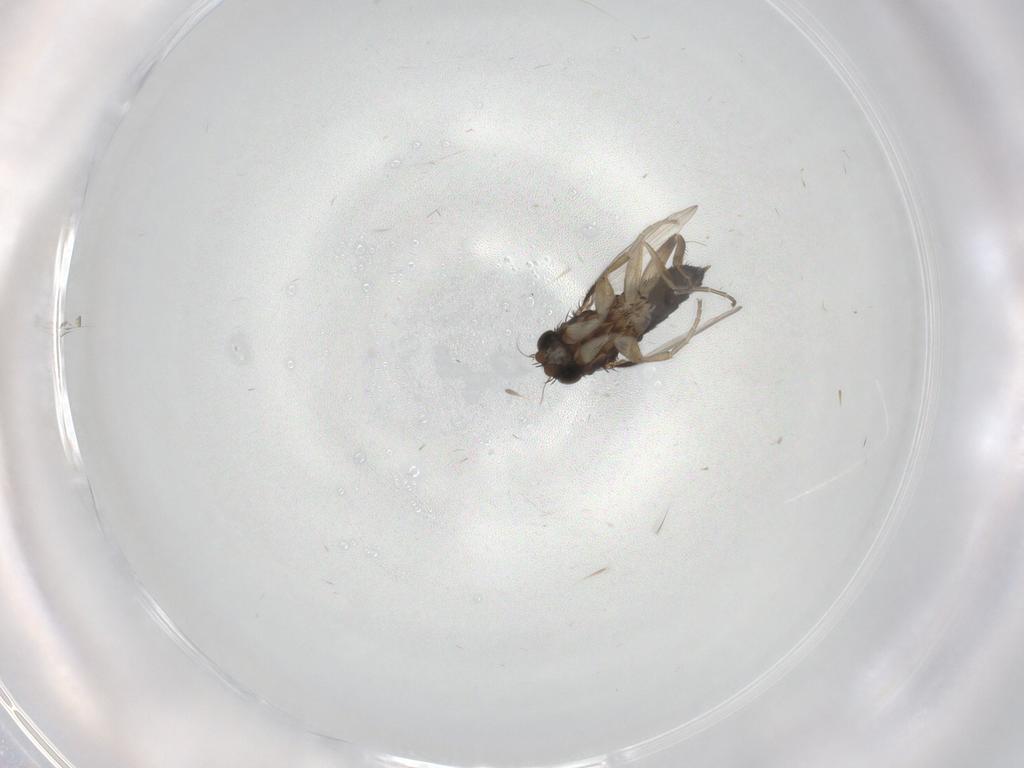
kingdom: Animalia
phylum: Arthropoda
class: Insecta
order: Diptera
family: Phoridae
